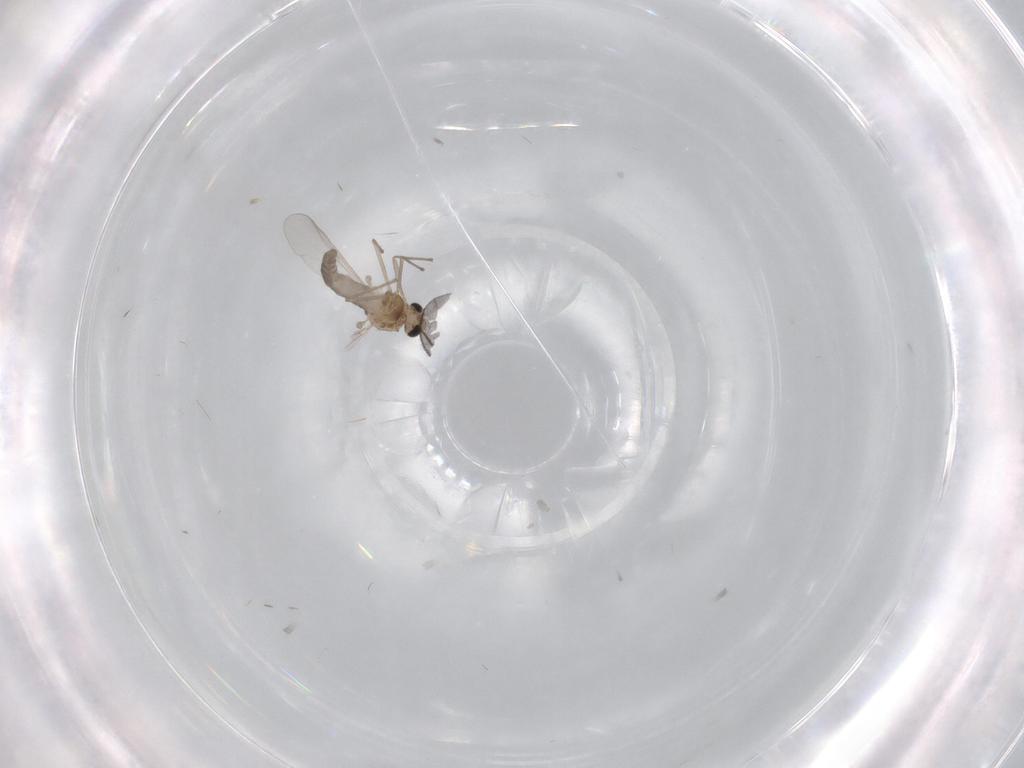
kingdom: Animalia
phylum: Arthropoda
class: Insecta
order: Diptera
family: Chironomidae
